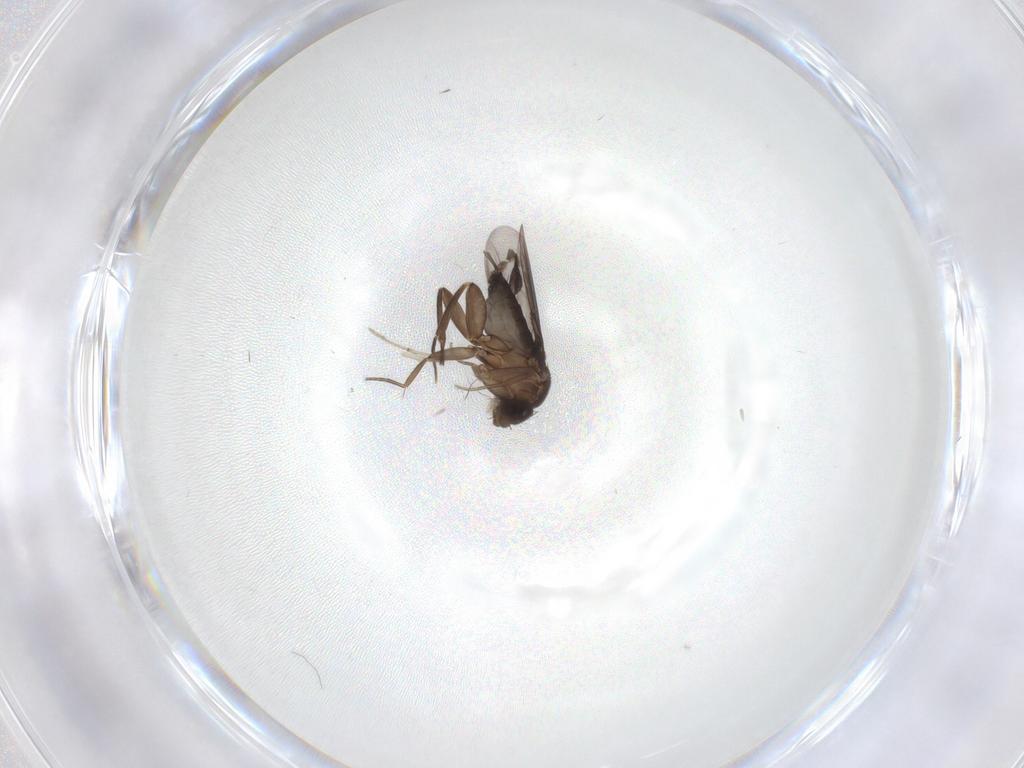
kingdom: Animalia
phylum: Arthropoda
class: Insecta
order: Diptera
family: Phoridae
